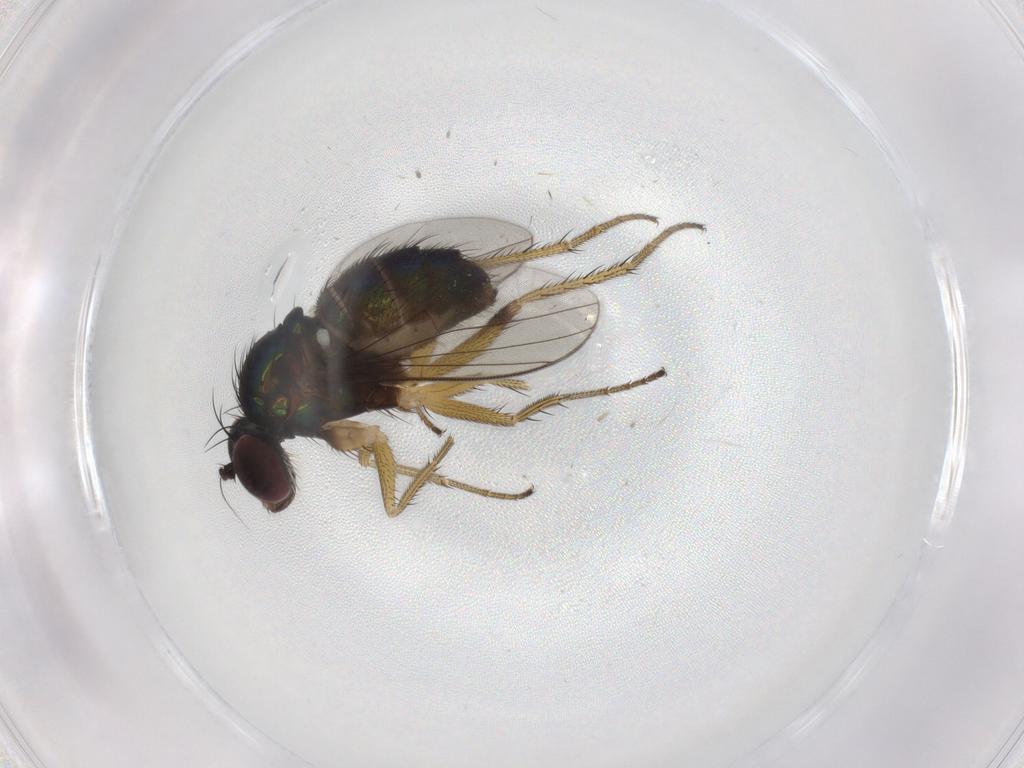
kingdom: Animalia
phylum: Arthropoda
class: Insecta
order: Diptera
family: Dolichopodidae
